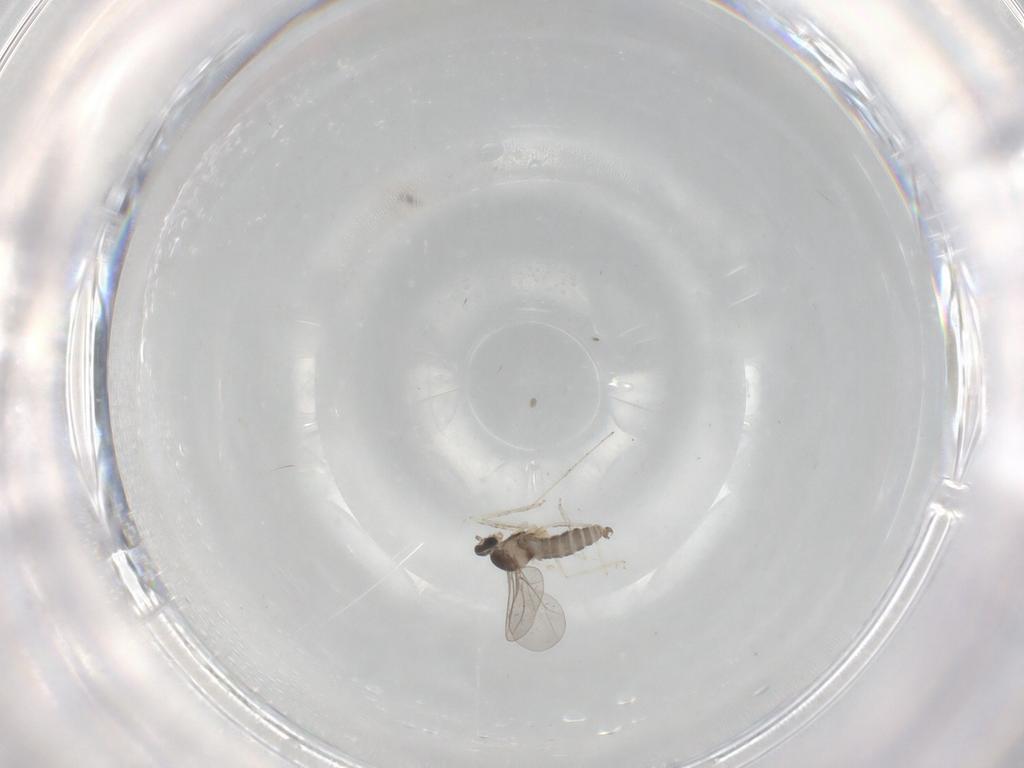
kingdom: Animalia
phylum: Arthropoda
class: Insecta
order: Diptera
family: Cecidomyiidae
